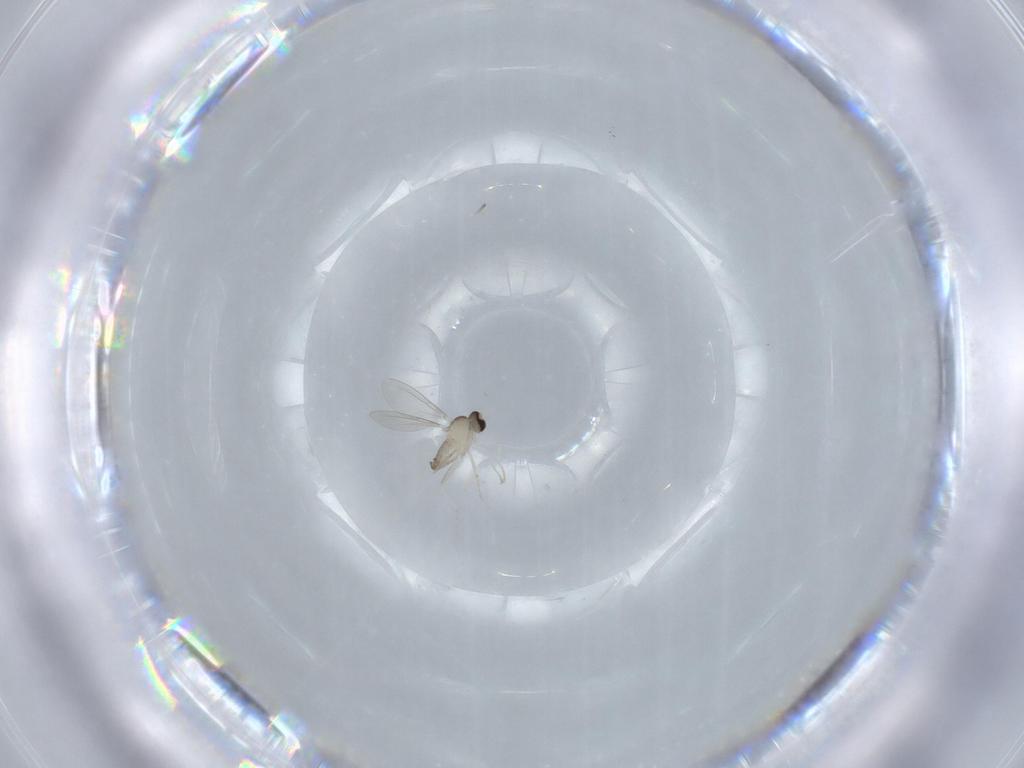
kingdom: Animalia
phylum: Arthropoda
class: Insecta
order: Diptera
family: Cecidomyiidae
